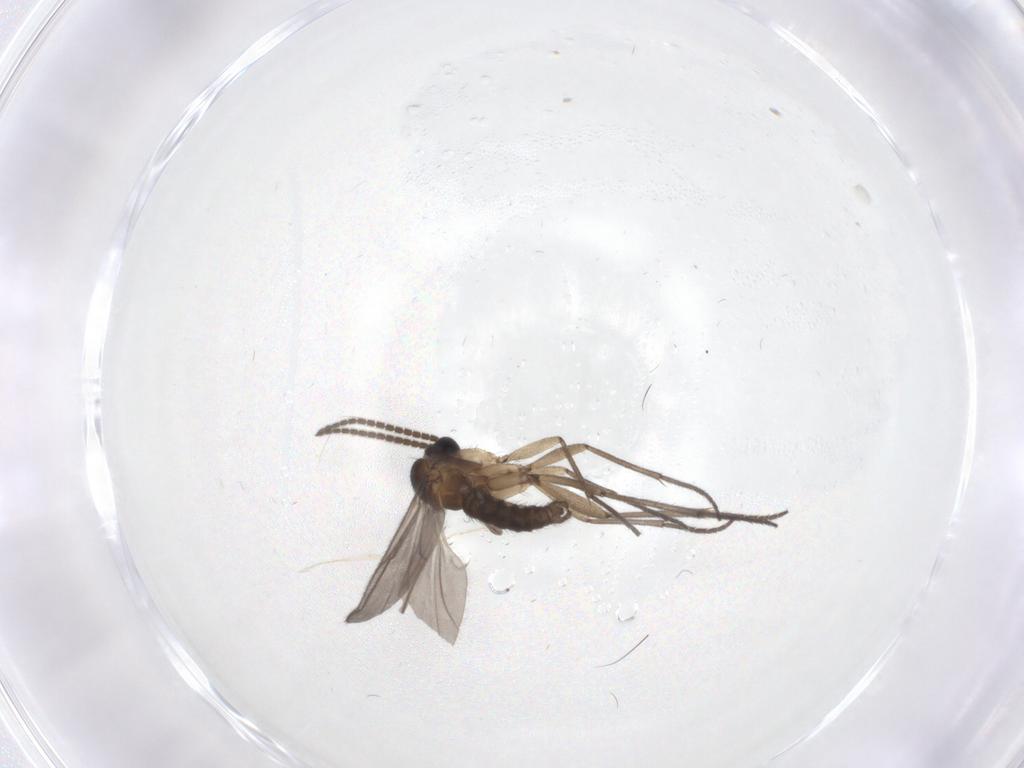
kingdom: Animalia
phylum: Arthropoda
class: Insecta
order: Diptera
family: Sciaridae
